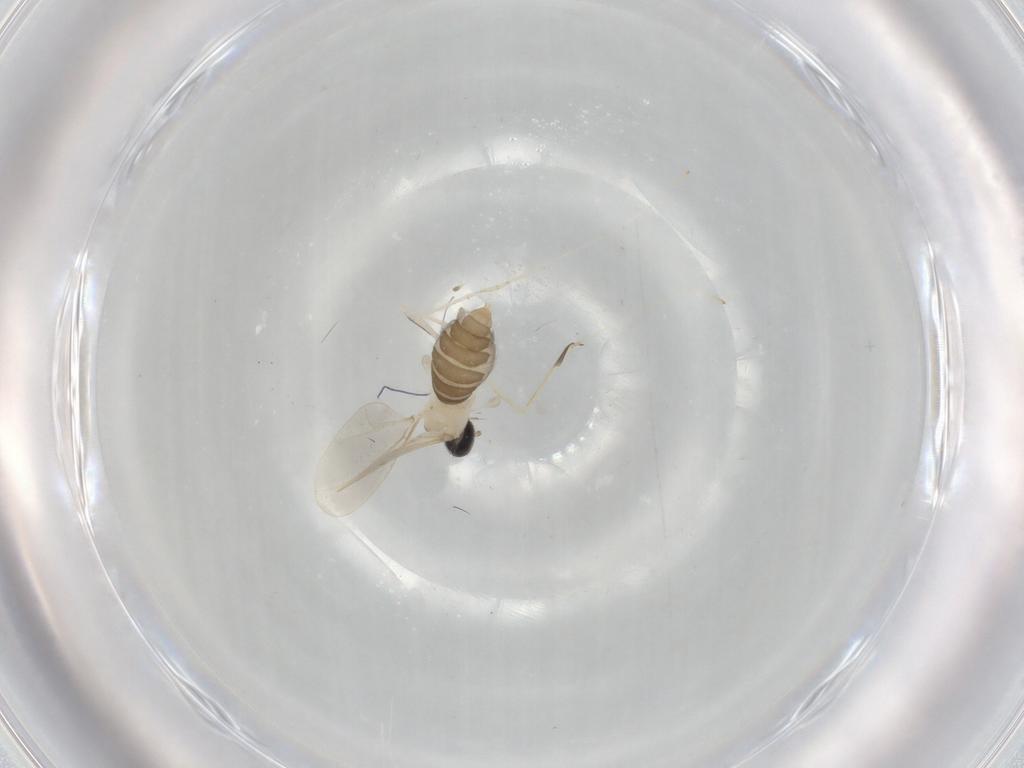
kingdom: Animalia
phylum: Arthropoda
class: Insecta
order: Diptera
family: Cecidomyiidae
